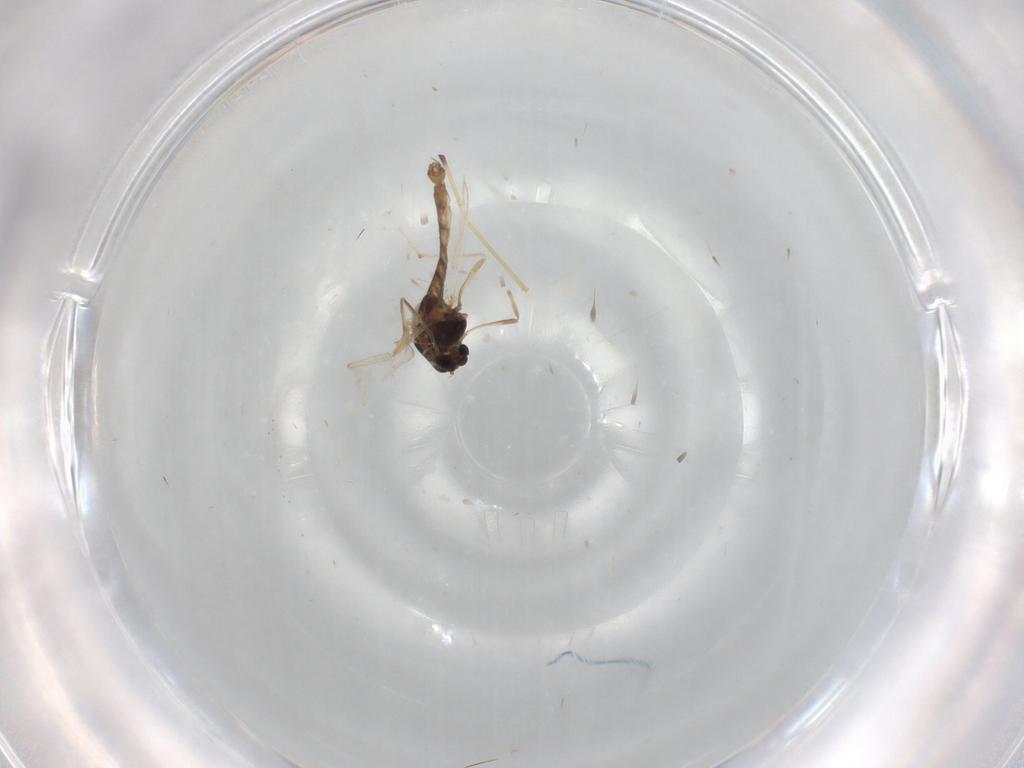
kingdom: Animalia
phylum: Arthropoda
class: Insecta
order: Diptera
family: Chironomidae
